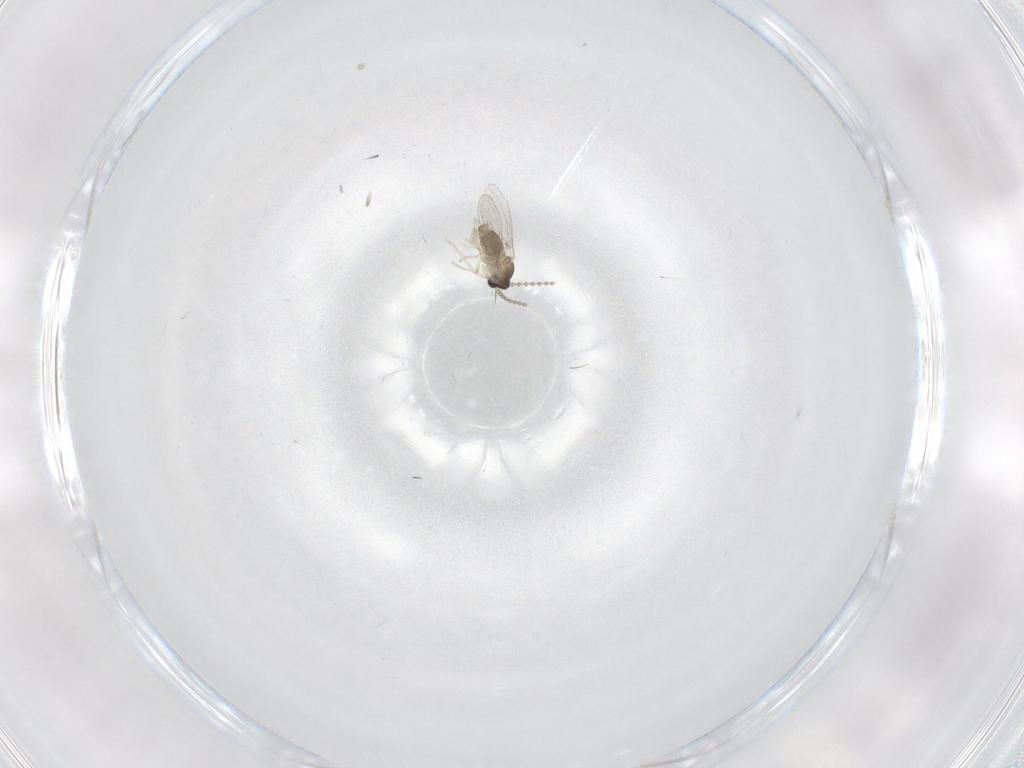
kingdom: Animalia
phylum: Arthropoda
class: Insecta
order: Diptera
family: Cecidomyiidae
